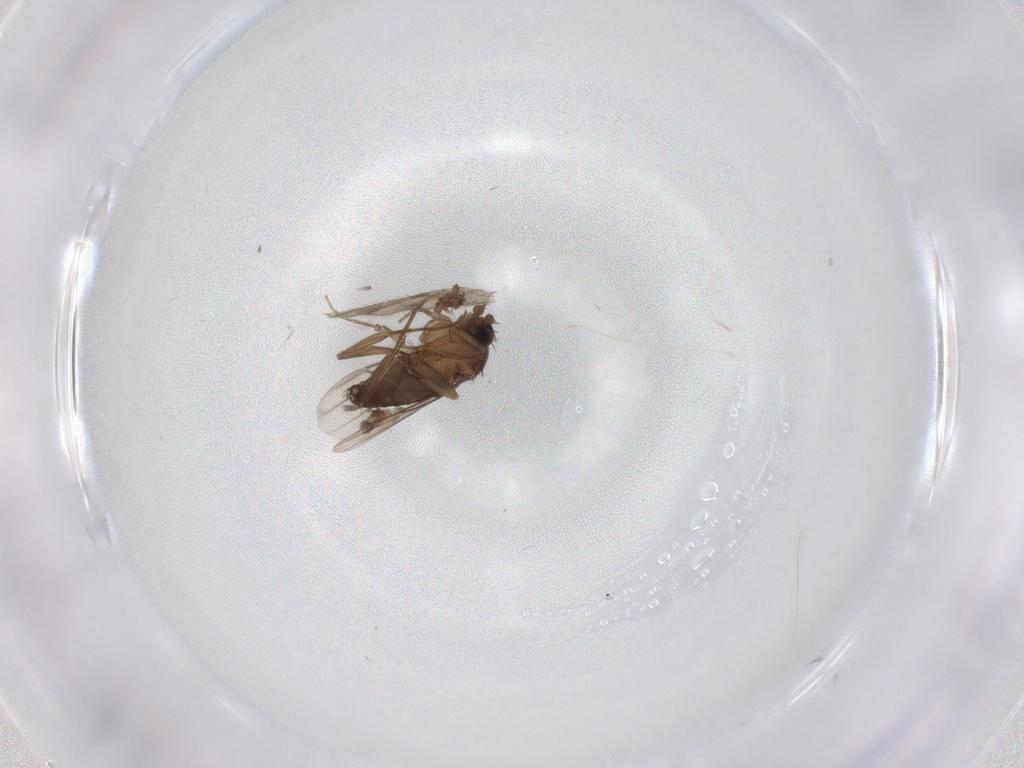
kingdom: Animalia
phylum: Arthropoda
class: Insecta
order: Diptera
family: Phoridae
